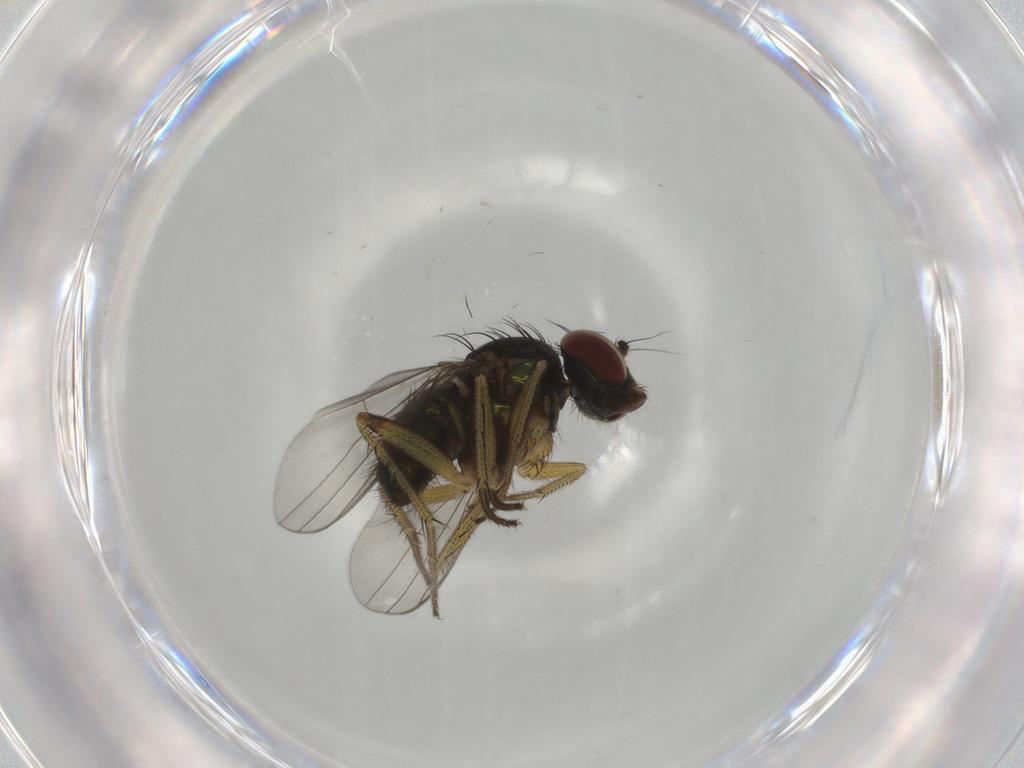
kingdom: Animalia
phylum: Arthropoda
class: Insecta
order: Diptera
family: Dolichopodidae
